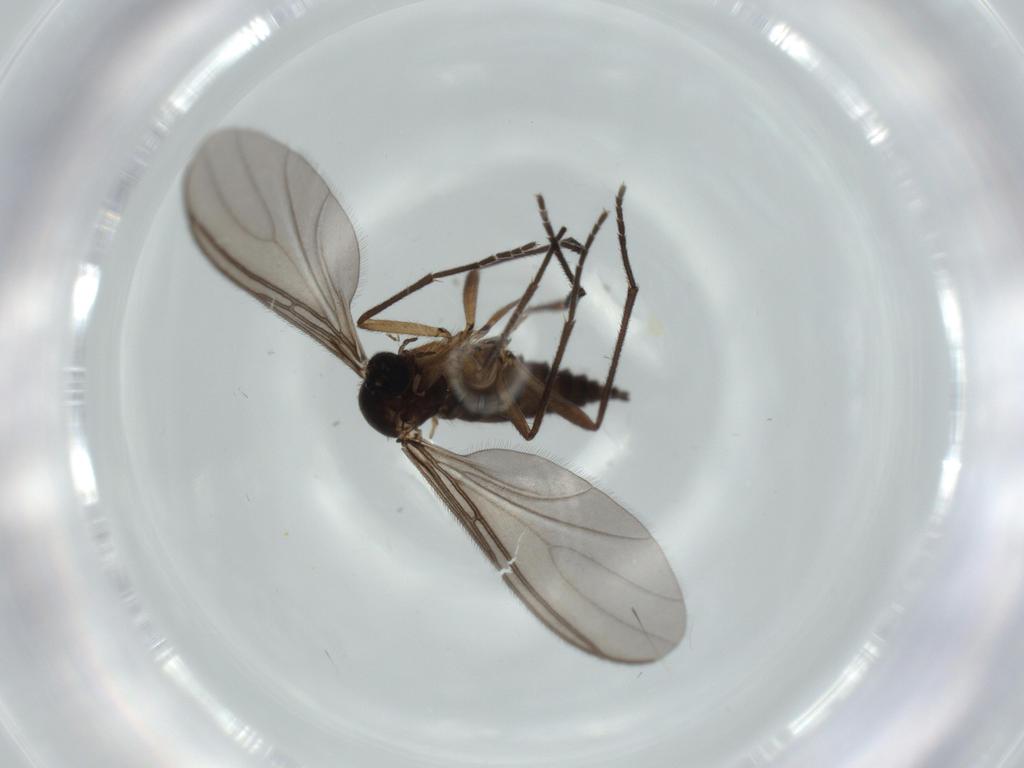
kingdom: Animalia
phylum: Arthropoda
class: Insecta
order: Diptera
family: Sciaridae
